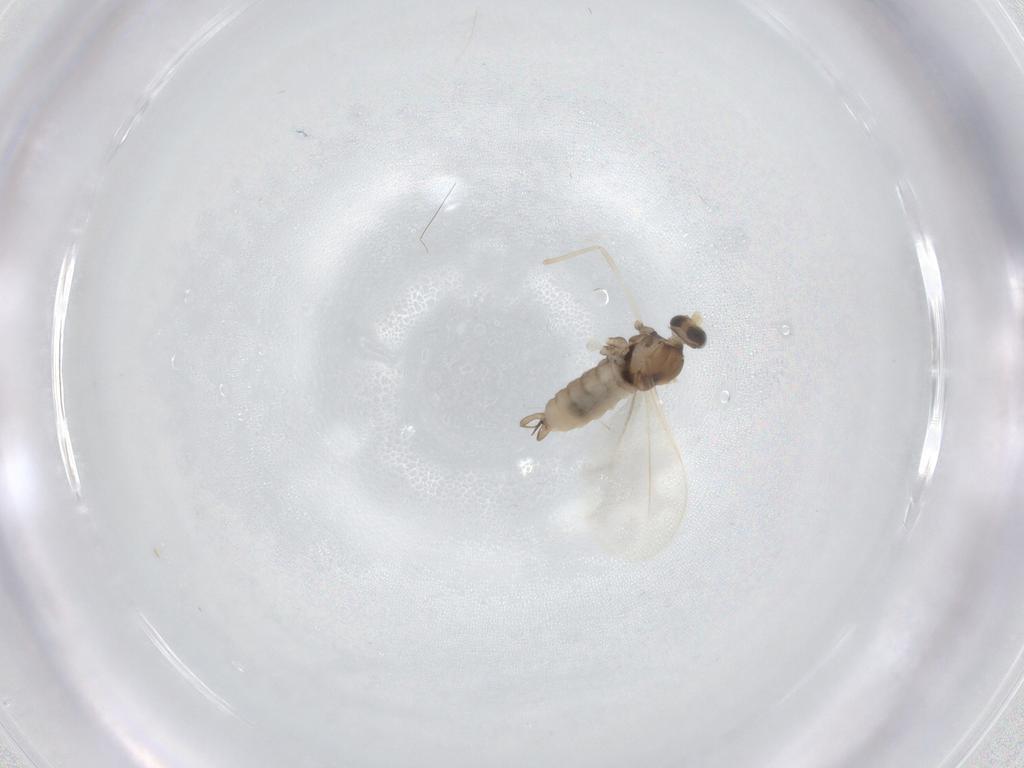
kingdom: Animalia
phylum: Arthropoda
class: Insecta
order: Diptera
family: Cecidomyiidae
